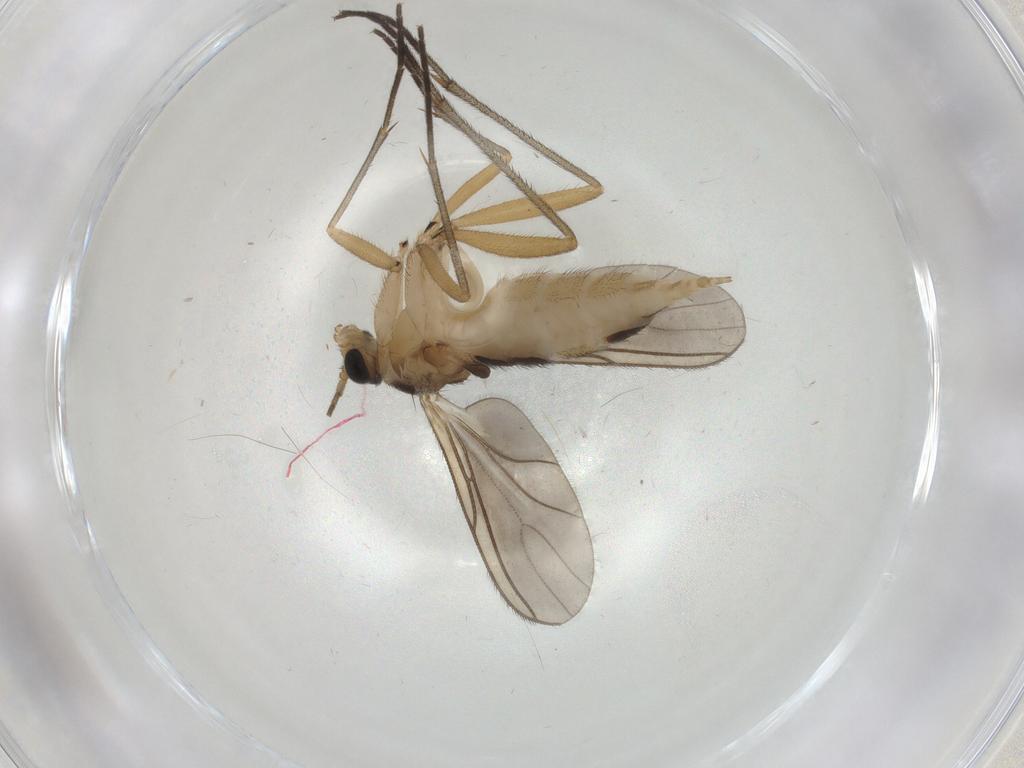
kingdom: Animalia
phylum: Arthropoda
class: Insecta
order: Diptera
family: Sciaridae
